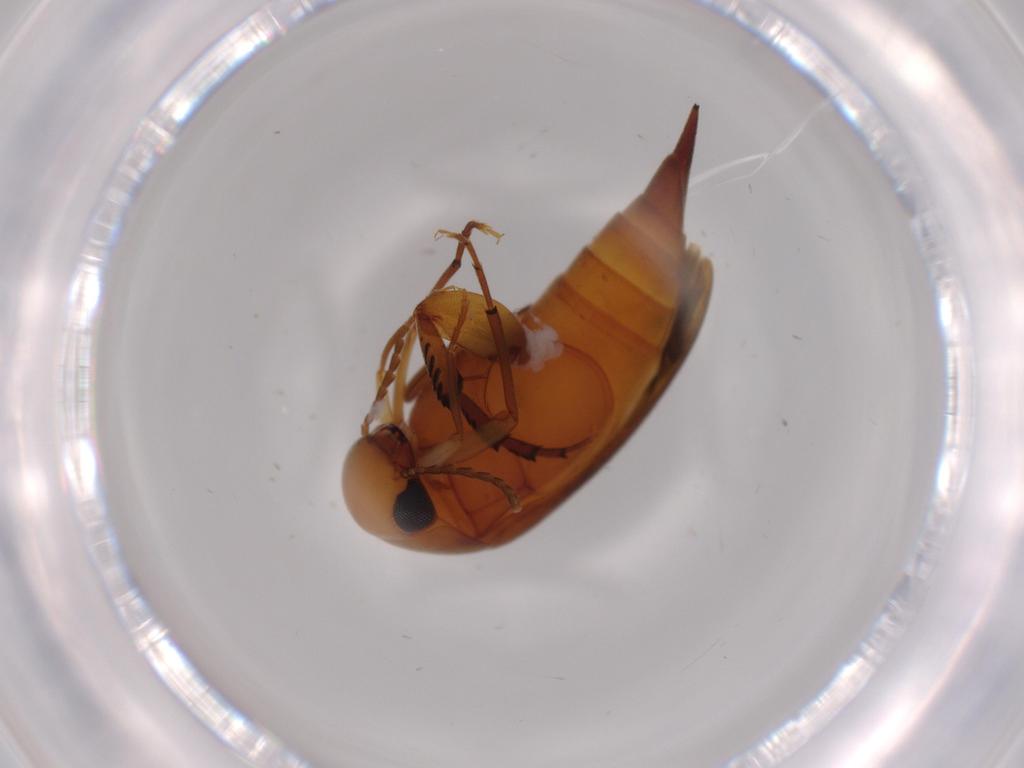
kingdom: Animalia
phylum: Arthropoda
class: Insecta
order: Coleoptera
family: Mordellidae
